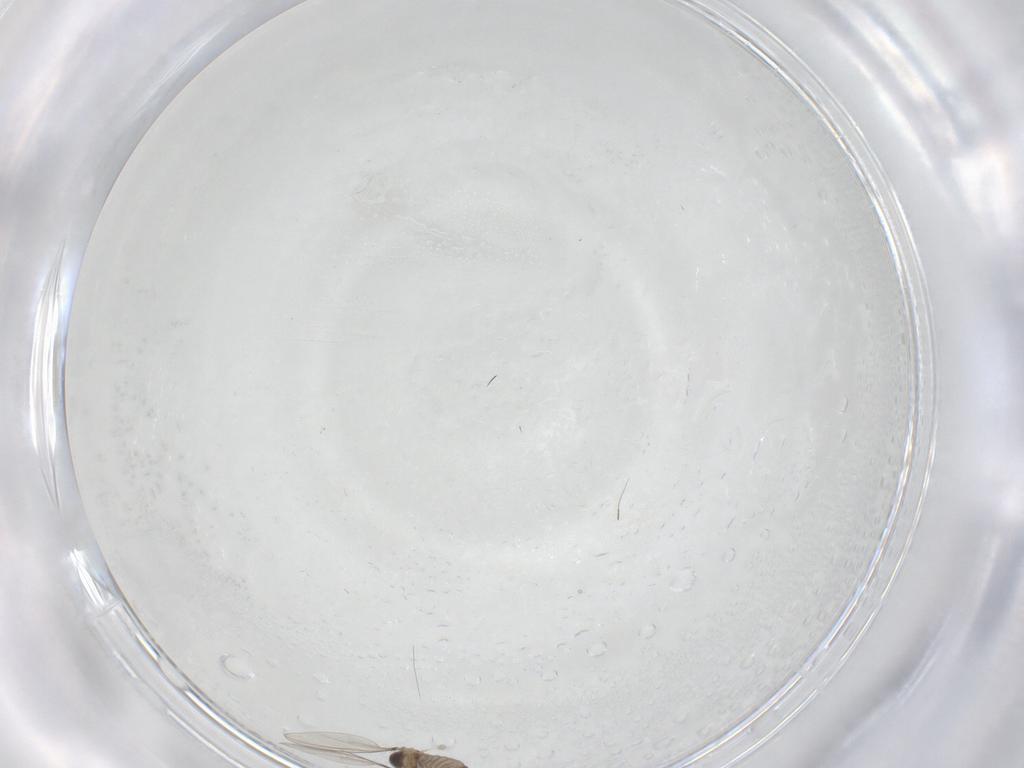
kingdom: Animalia
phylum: Arthropoda
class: Insecta
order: Diptera
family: Cecidomyiidae
